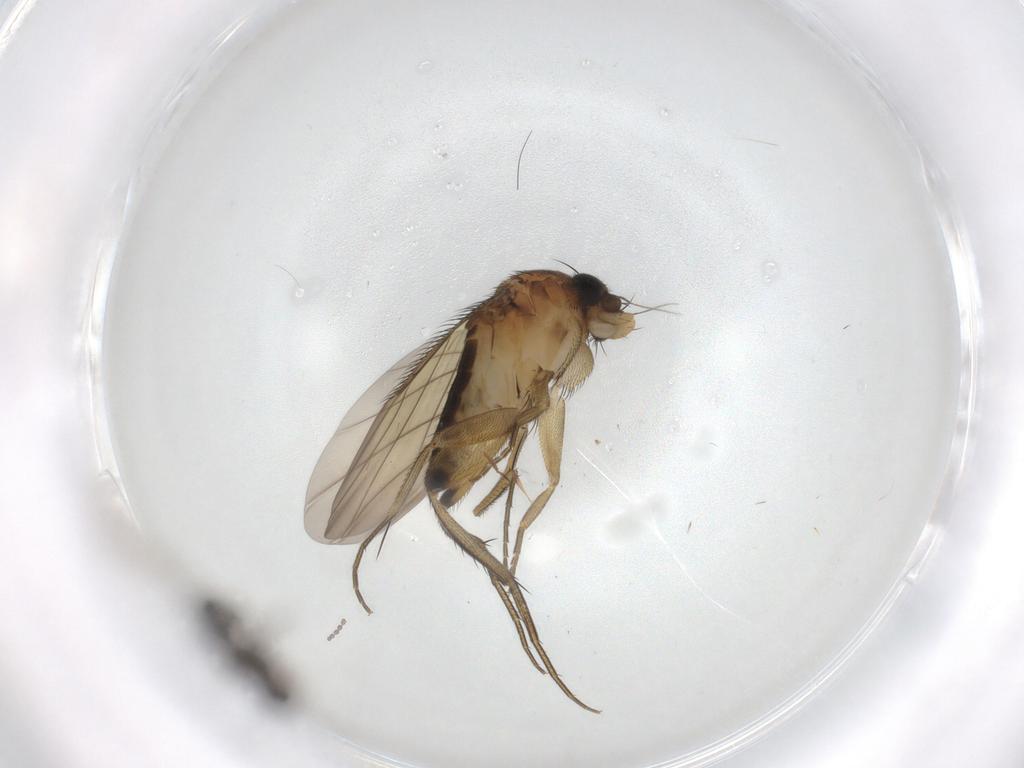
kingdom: Animalia
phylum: Arthropoda
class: Insecta
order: Diptera
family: Phoridae
